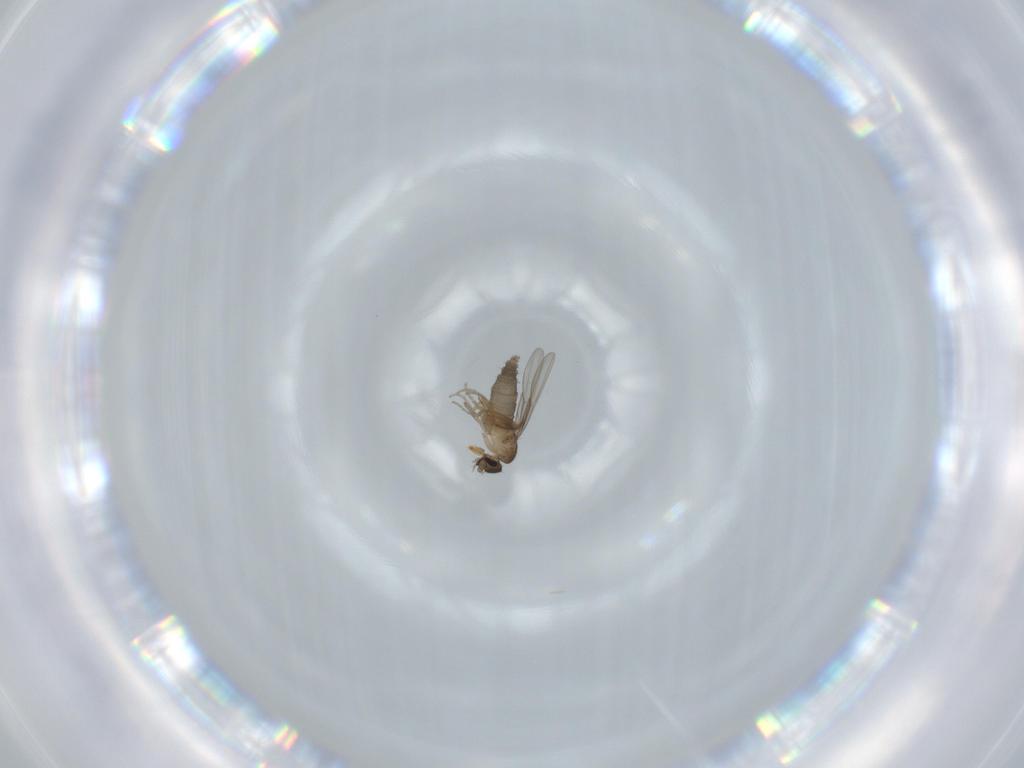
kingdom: Animalia
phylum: Arthropoda
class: Insecta
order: Diptera
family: Phoridae
